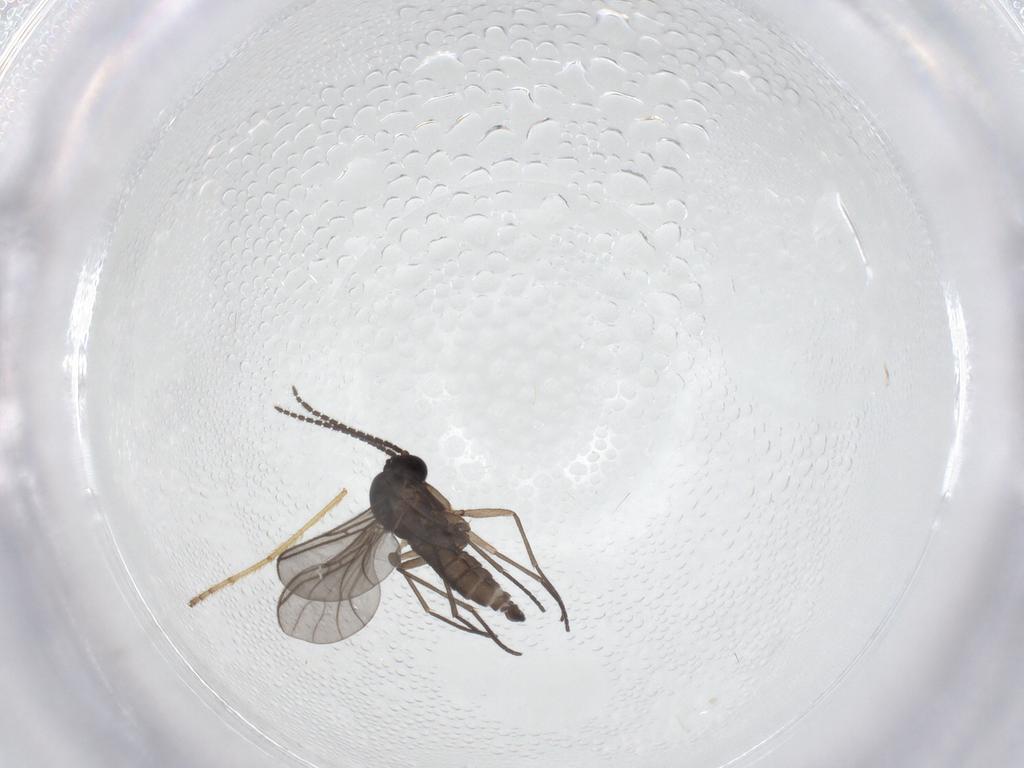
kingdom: Animalia
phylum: Arthropoda
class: Insecta
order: Diptera
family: Limoniidae
